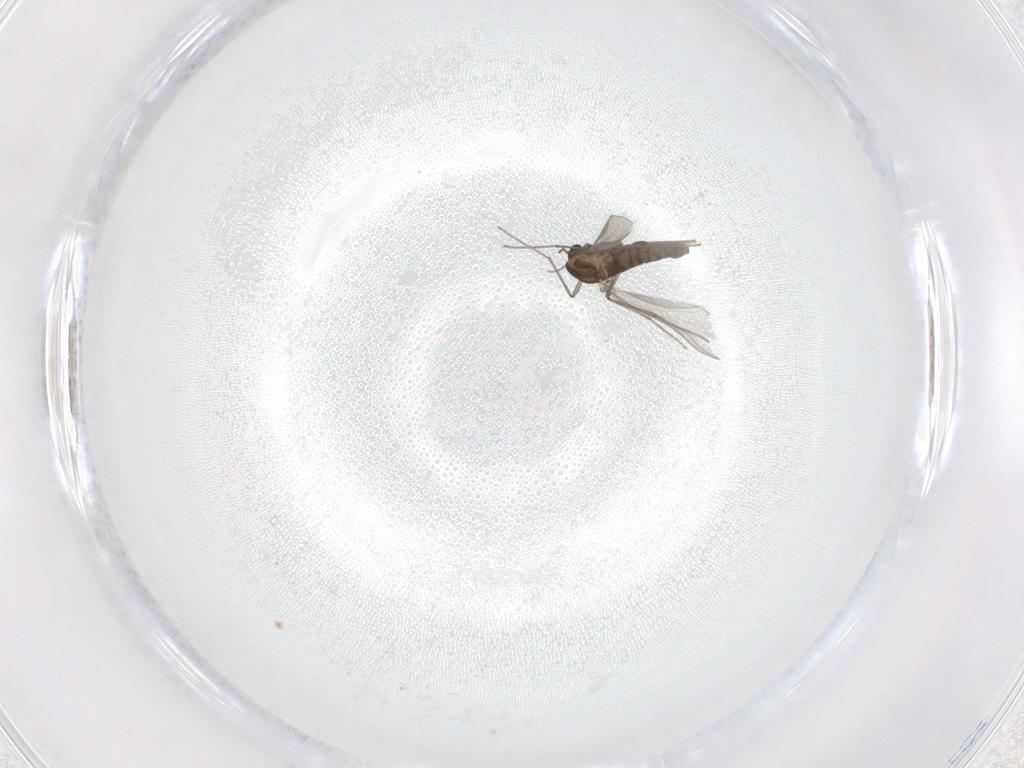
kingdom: Animalia
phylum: Arthropoda
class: Insecta
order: Diptera
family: Chironomidae
